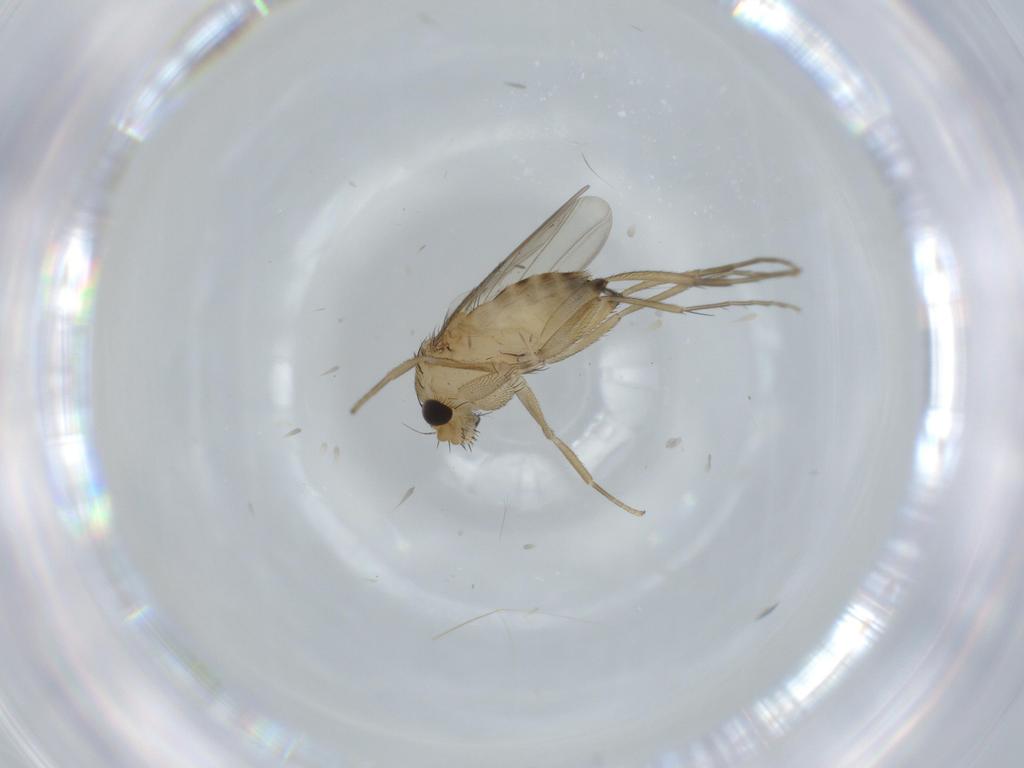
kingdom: Animalia
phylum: Arthropoda
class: Insecta
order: Diptera
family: Phoridae
